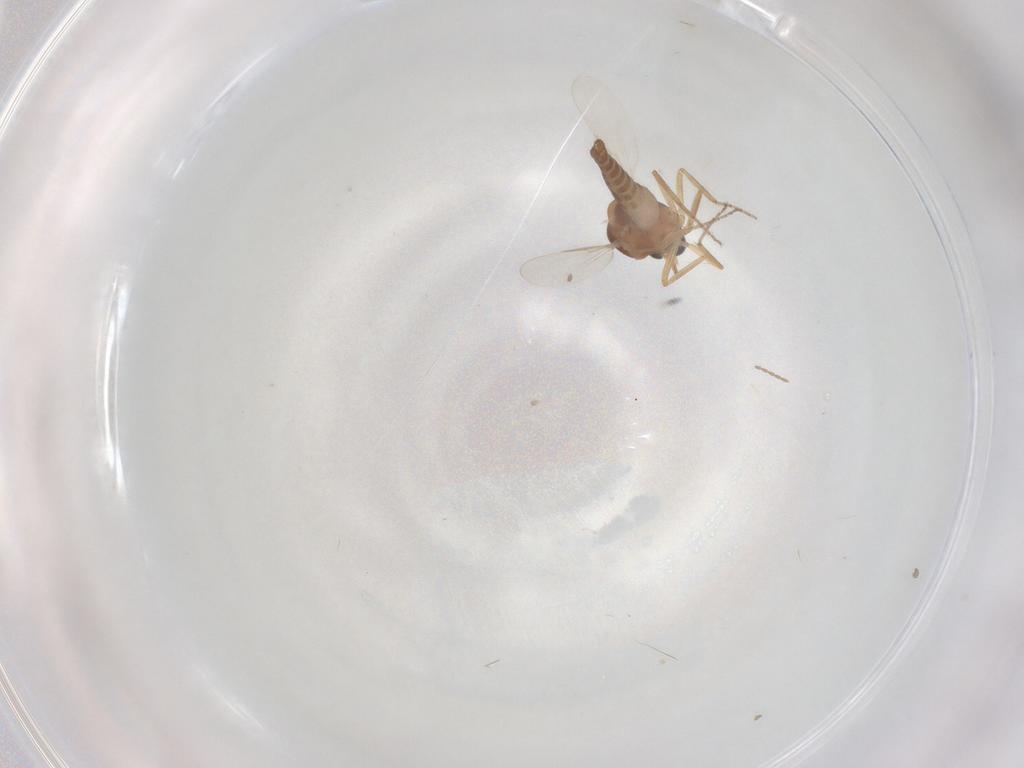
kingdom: Animalia
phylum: Arthropoda
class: Insecta
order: Diptera
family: Ceratopogonidae
